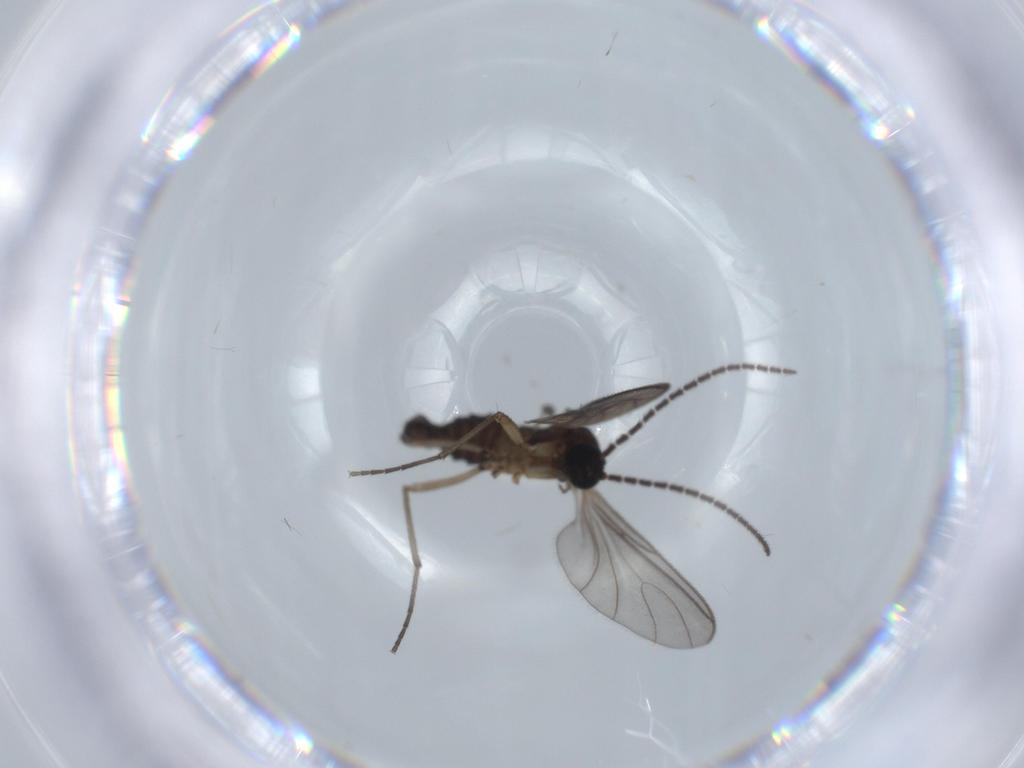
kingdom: Animalia
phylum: Arthropoda
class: Insecta
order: Diptera
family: Sciaridae
